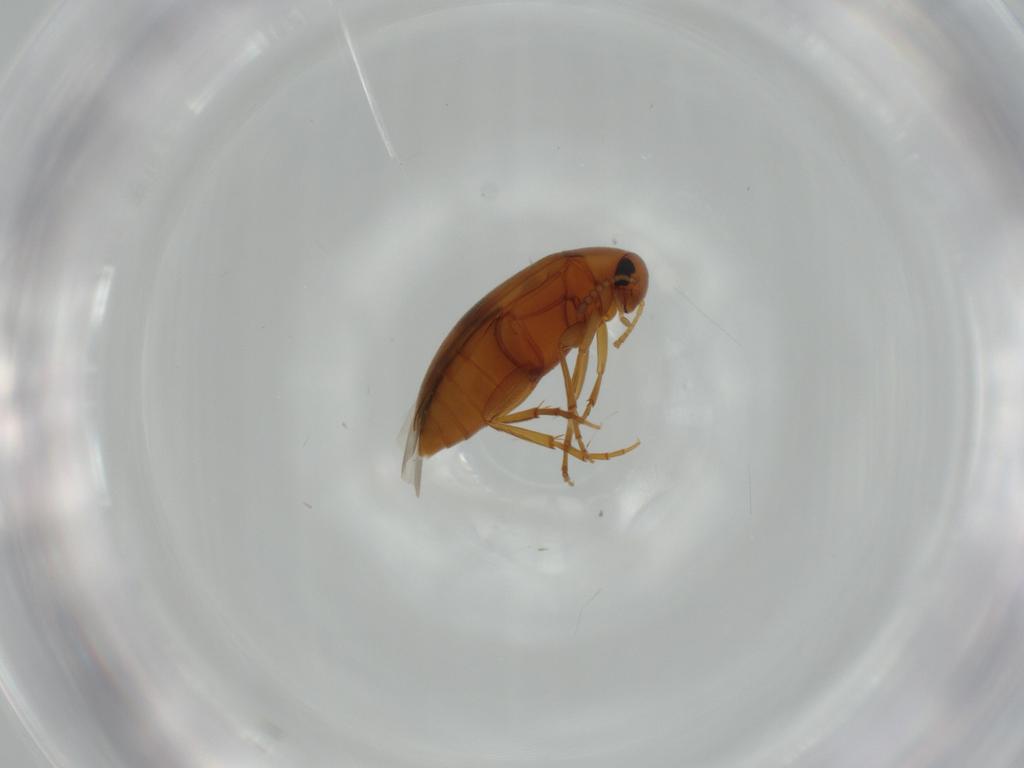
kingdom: Animalia
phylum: Arthropoda
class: Insecta
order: Coleoptera
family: Scraptiidae
